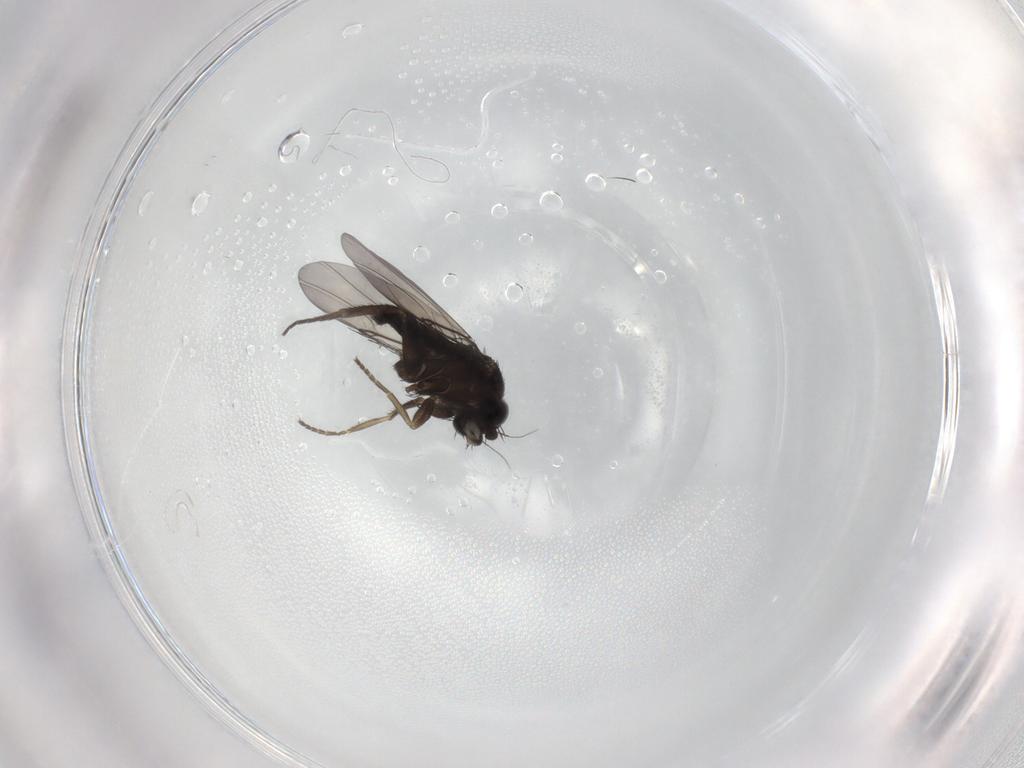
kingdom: Animalia
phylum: Arthropoda
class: Insecta
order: Diptera
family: Phoridae
